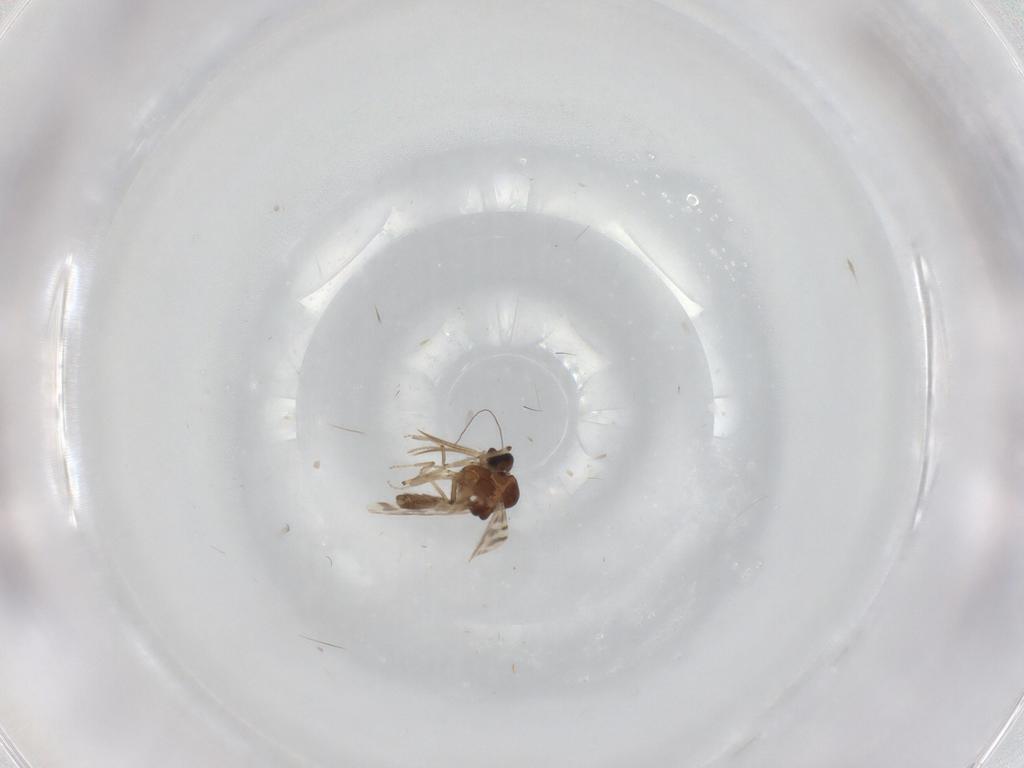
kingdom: Animalia
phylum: Arthropoda
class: Insecta
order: Diptera
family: Ceratopogonidae
